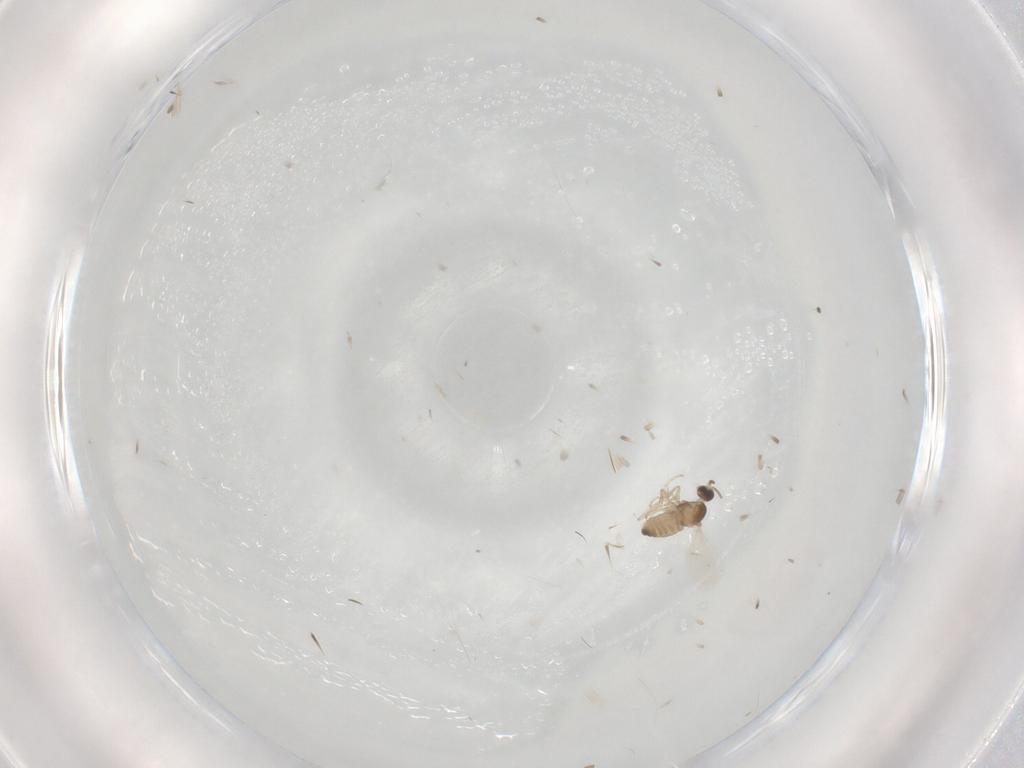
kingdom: Animalia
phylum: Arthropoda
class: Insecta
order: Diptera
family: Cecidomyiidae
